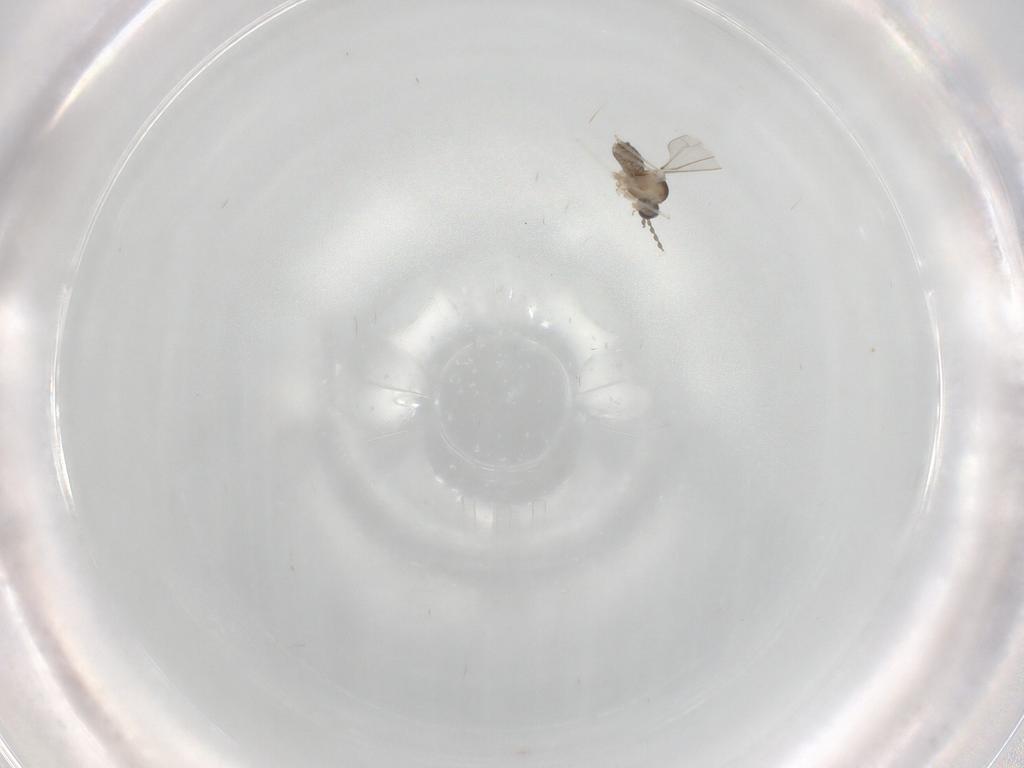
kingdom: Animalia
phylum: Arthropoda
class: Insecta
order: Diptera
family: Cecidomyiidae
